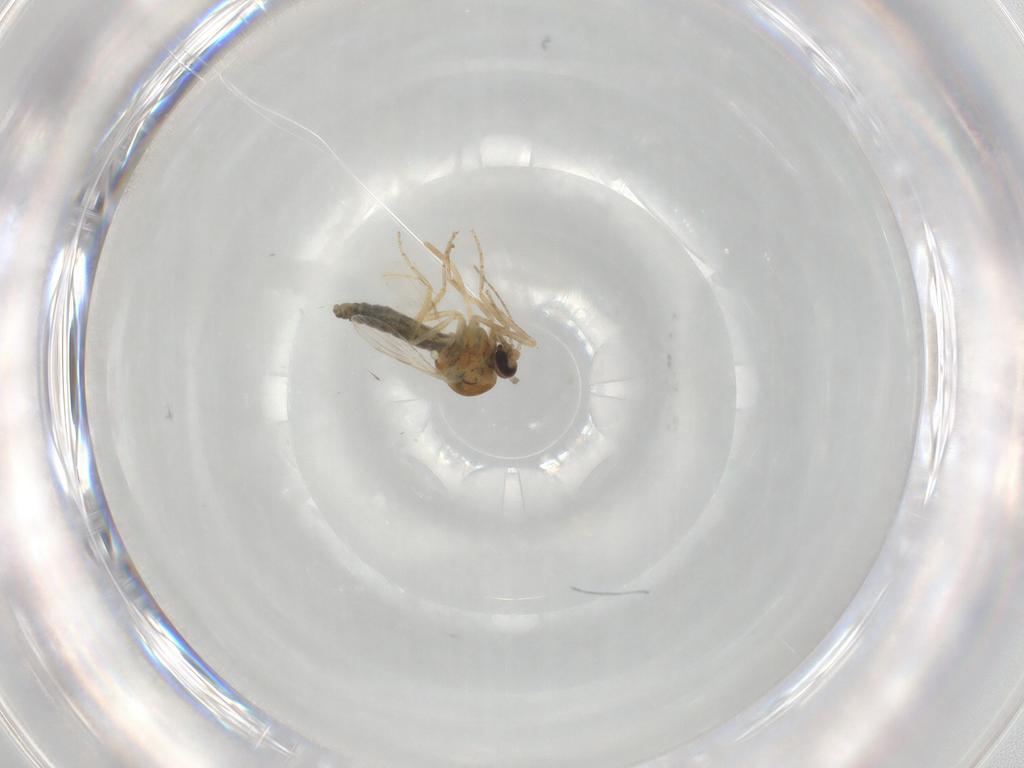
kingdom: Animalia
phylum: Arthropoda
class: Insecta
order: Diptera
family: Ceratopogonidae
